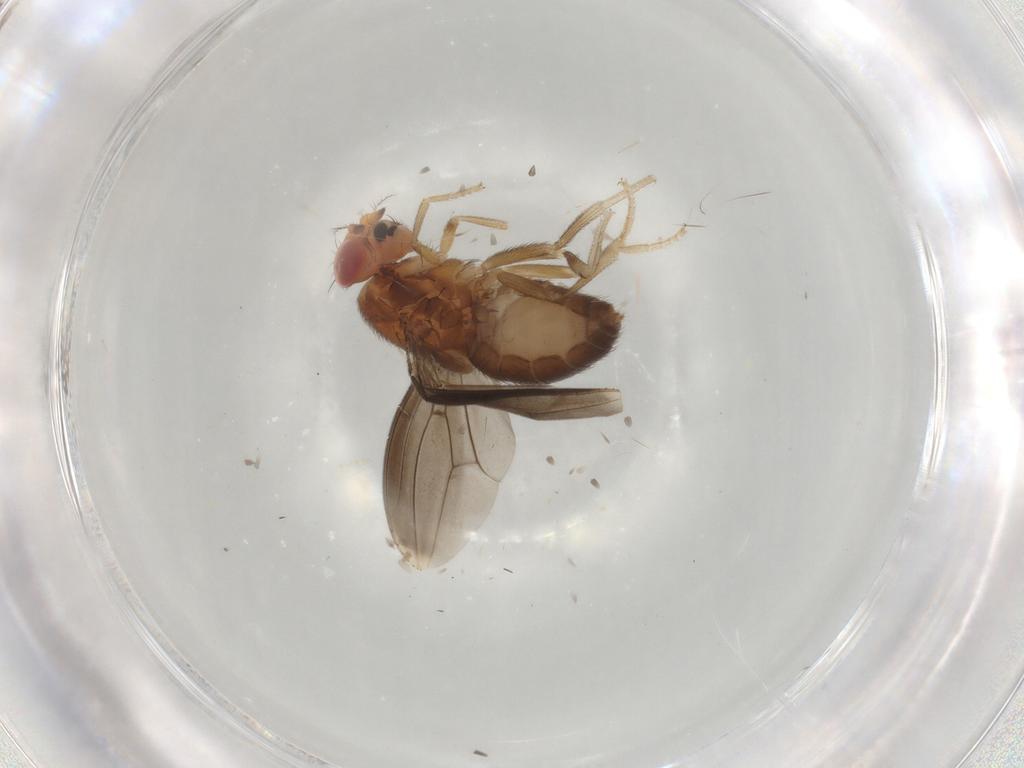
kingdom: Animalia
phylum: Arthropoda
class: Insecta
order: Diptera
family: Drosophilidae
